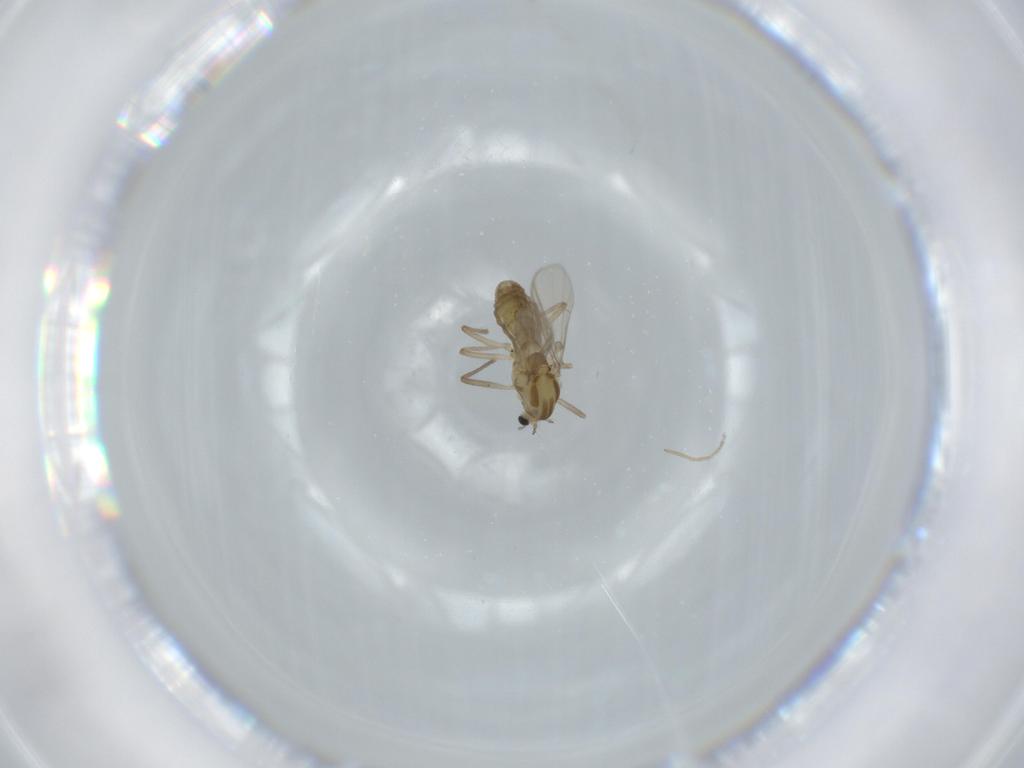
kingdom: Animalia
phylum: Arthropoda
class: Insecta
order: Diptera
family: Chironomidae
